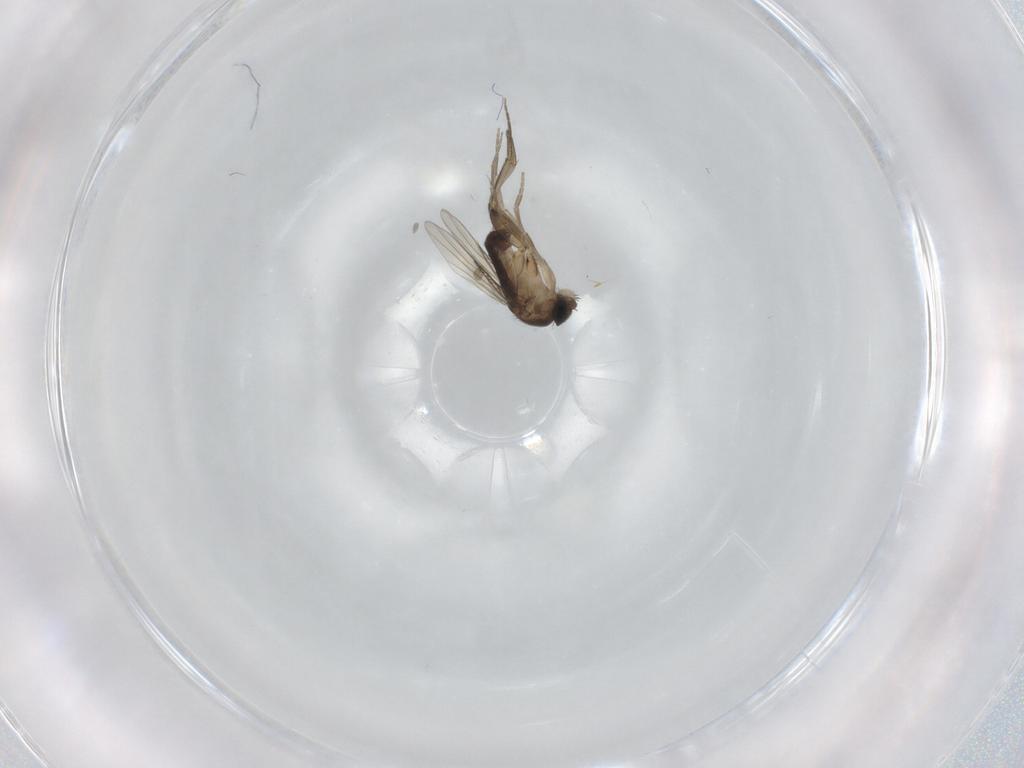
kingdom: Animalia
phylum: Arthropoda
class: Insecta
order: Diptera
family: Phoridae
